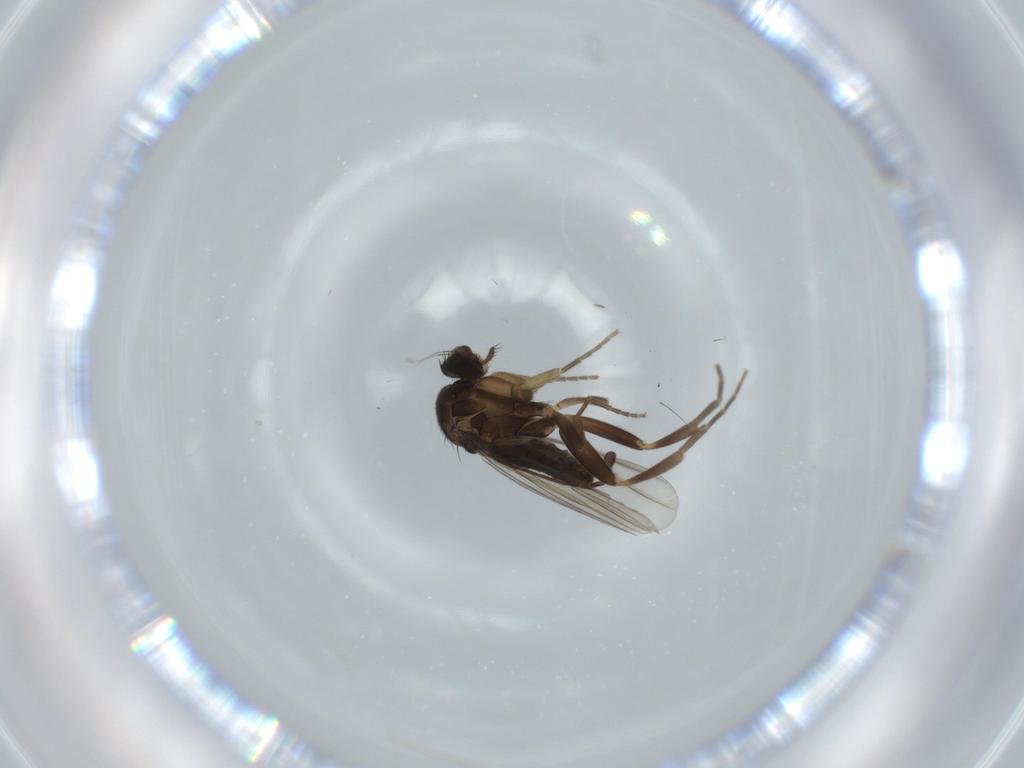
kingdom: Animalia
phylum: Arthropoda
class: Insecta
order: Diptera
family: Phoridae
